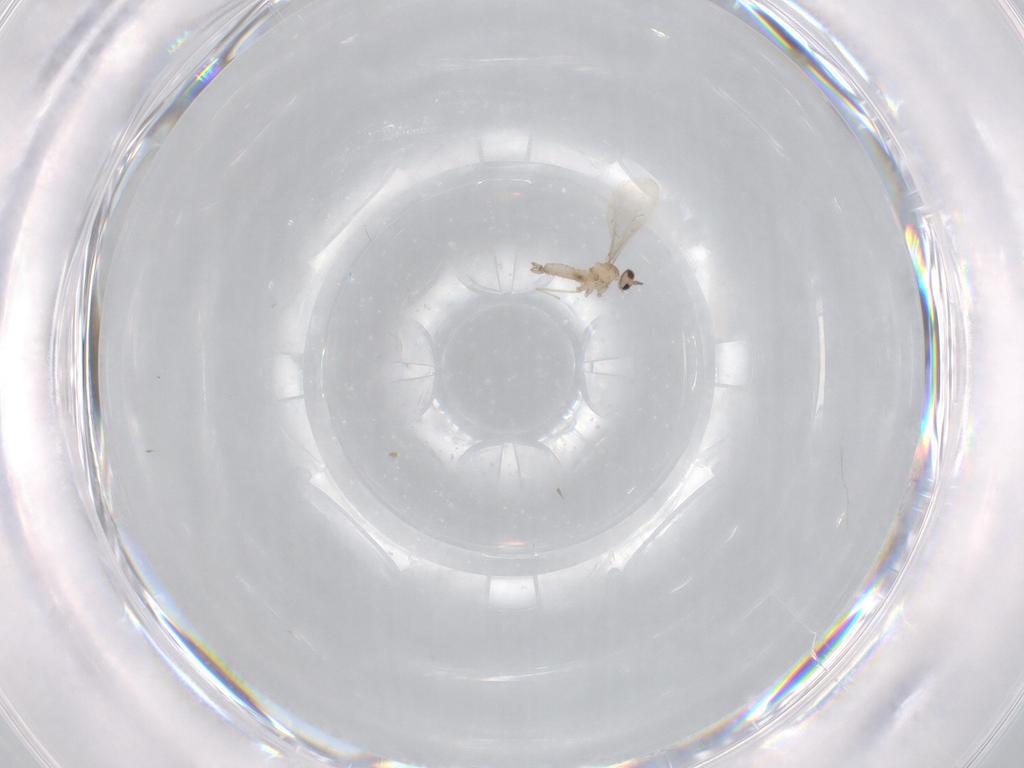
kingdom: Animalia
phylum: Arthropoda
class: Insecta
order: Diptera
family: Cecidomyiidae
